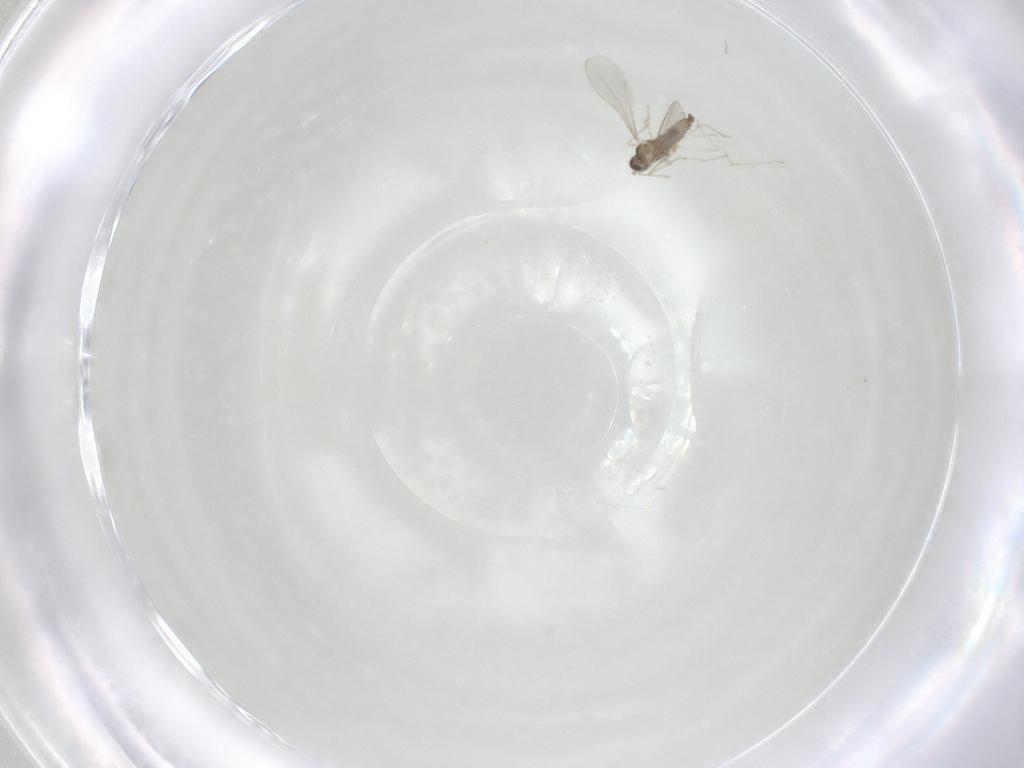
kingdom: Animalia
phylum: Arthropoda
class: Insecta
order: Diptera
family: Cecidomyiidae
